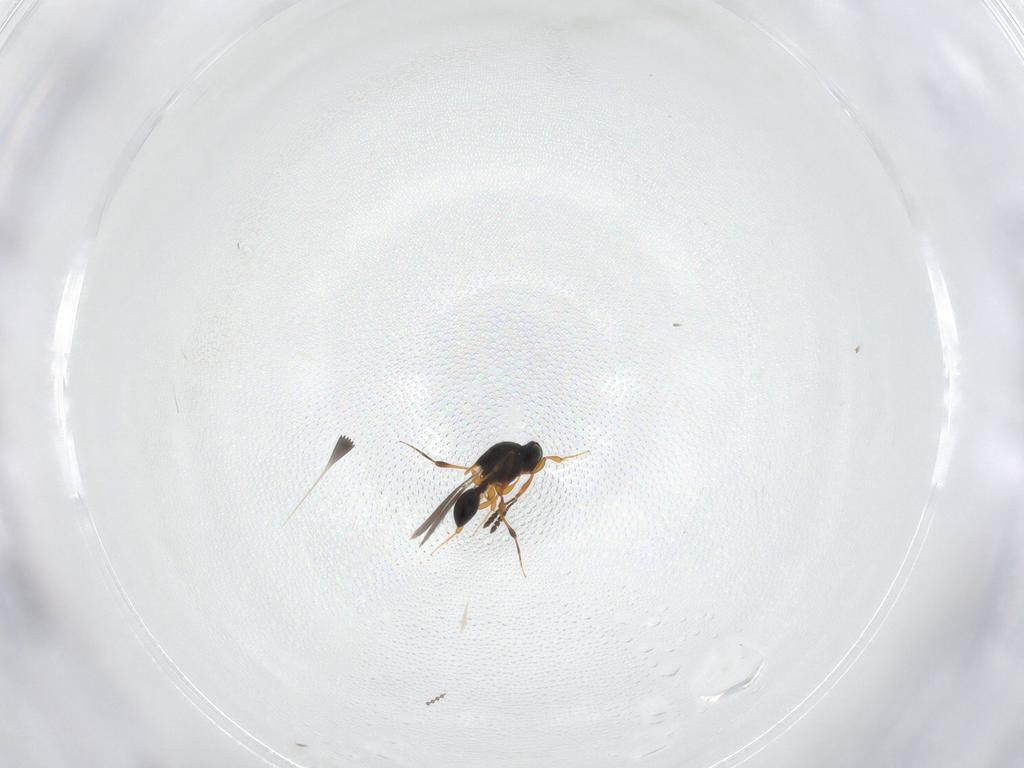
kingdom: Animalia
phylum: Arthropoda
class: Insecta
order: Hymenoptera
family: Platygastridae
